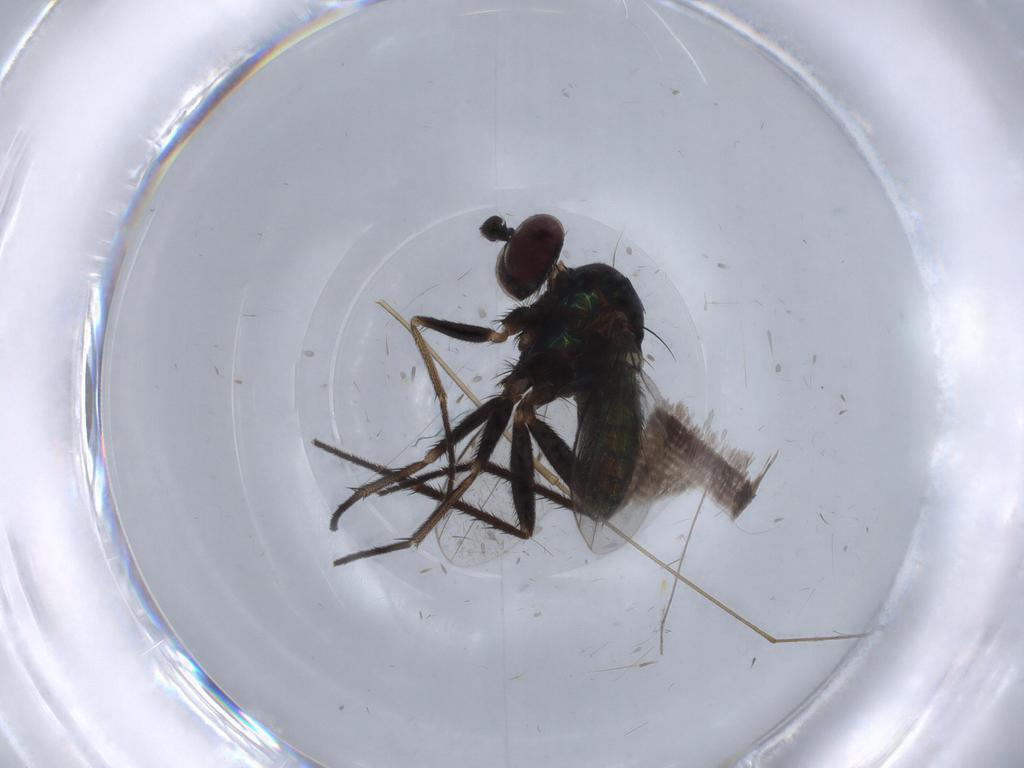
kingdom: Animalia
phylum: Arthropoda
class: Insecta
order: Diptera
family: Dolichopodidae
